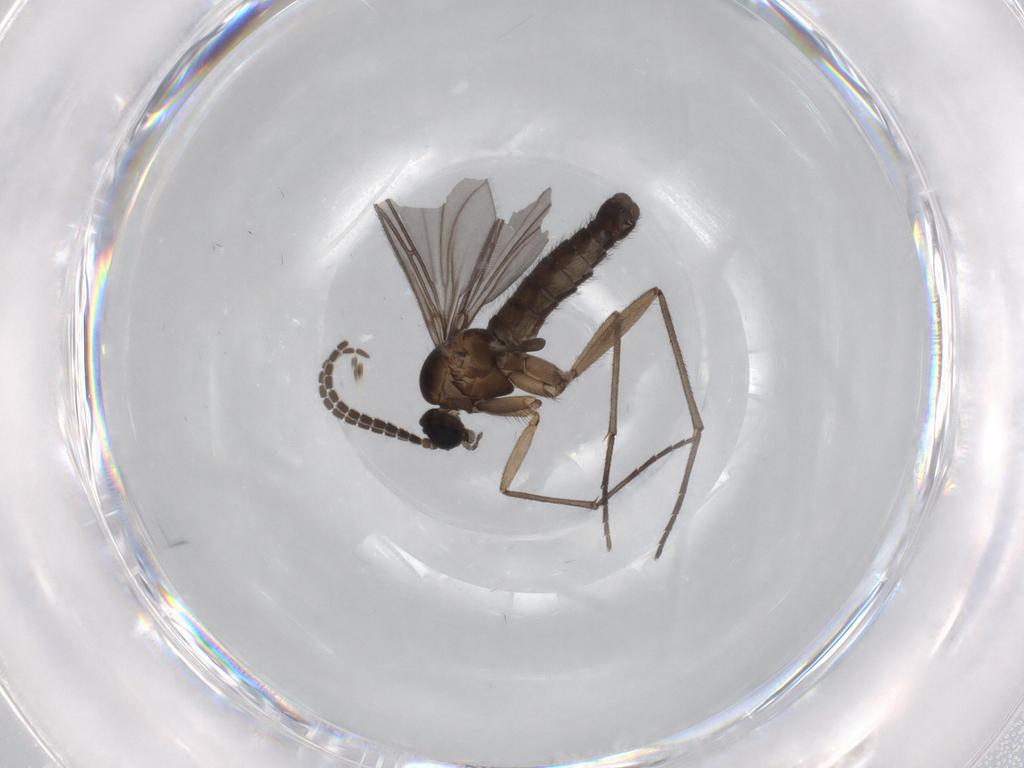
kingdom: Animalia
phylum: Arthropoda
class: Insecta
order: Diptera
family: Sciaridae
